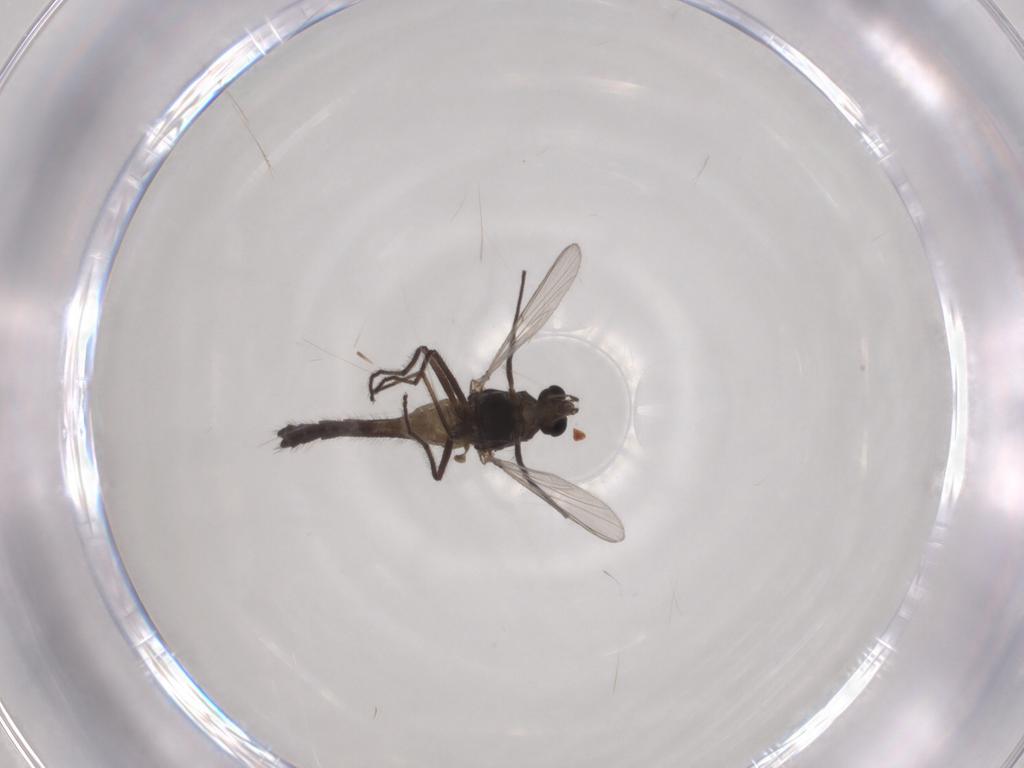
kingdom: Animalia
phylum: Arthropoda
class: Insecta
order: Diptera
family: Chironomidae
